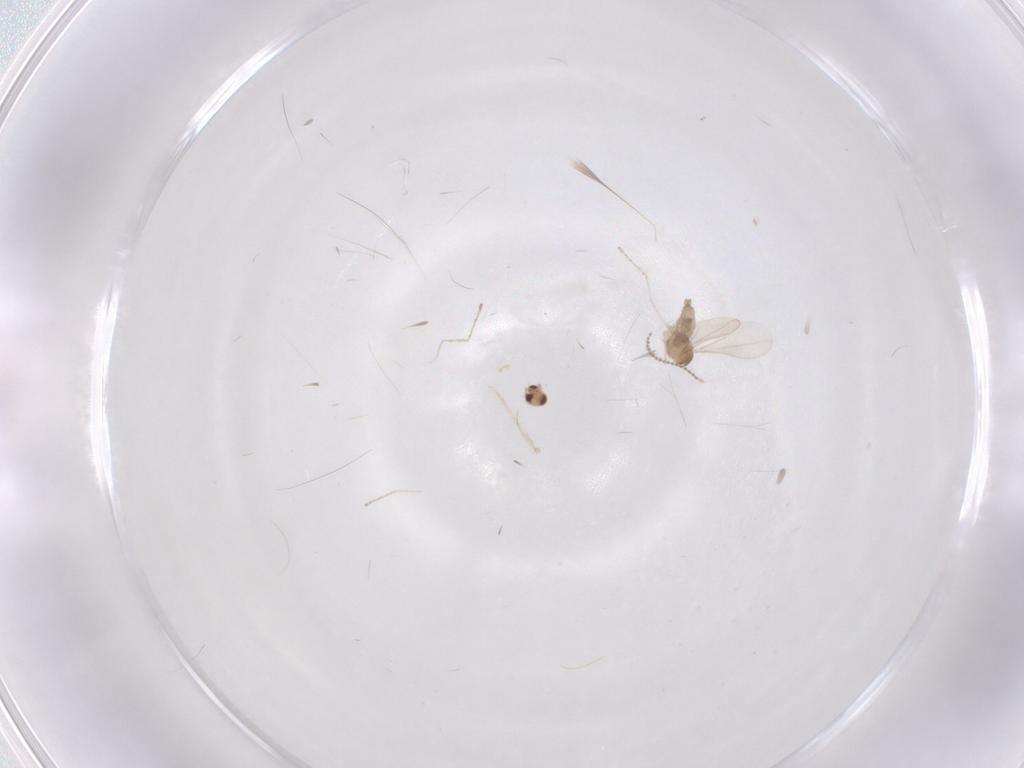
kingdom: Animalia
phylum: Arthropoda
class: Insecta
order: Diptera
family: Cecidomyiidae
